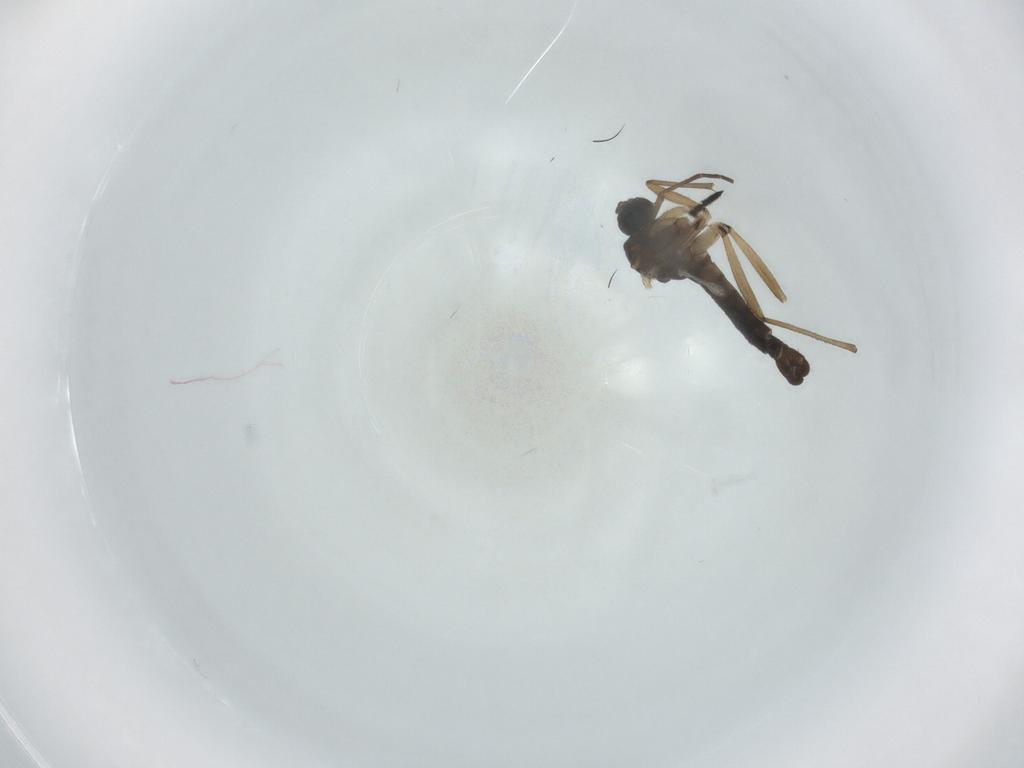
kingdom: Animalia
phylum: Arthropoda
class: Insecta
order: Diptera
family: Sciaridae
